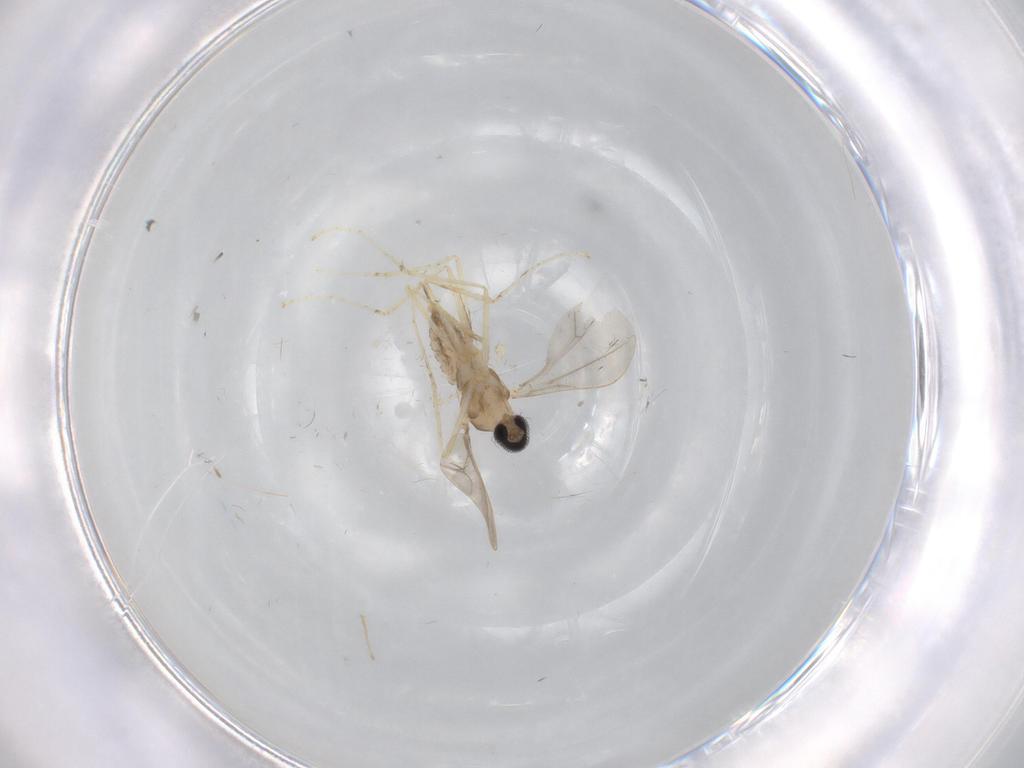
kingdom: Animalia
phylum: Arthropoda
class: Insecta
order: Diptera
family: Cecidomyiidae
